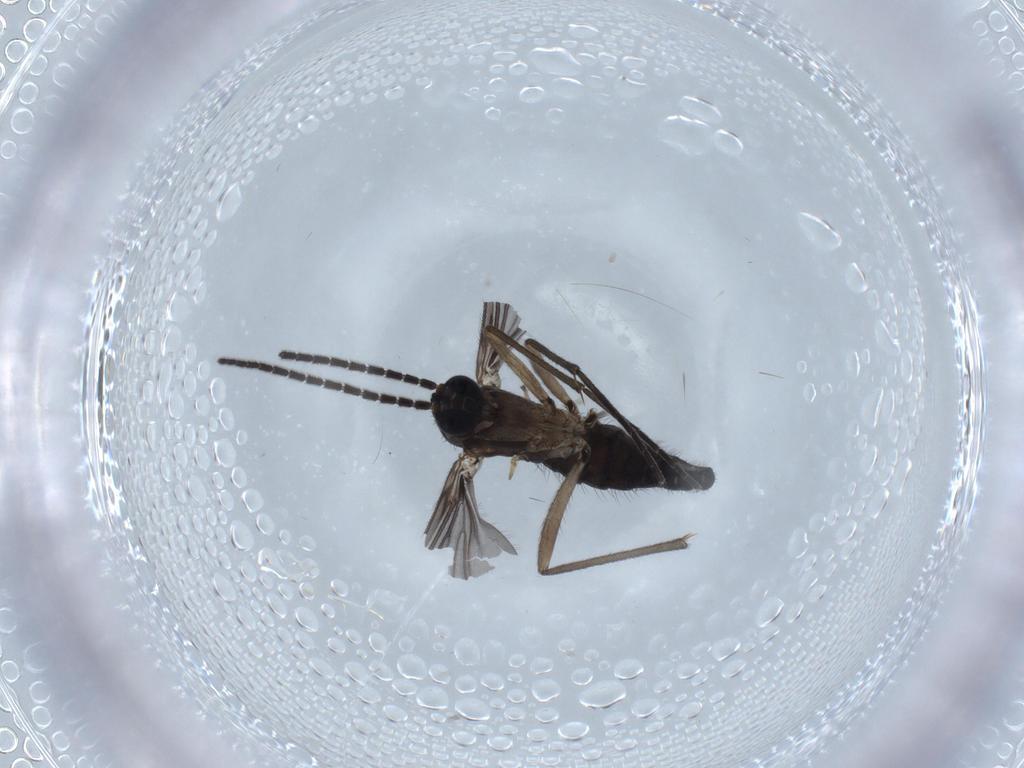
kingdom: Animalia
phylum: Arthropoda
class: Insecta
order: Diptera
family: Sciaridae
